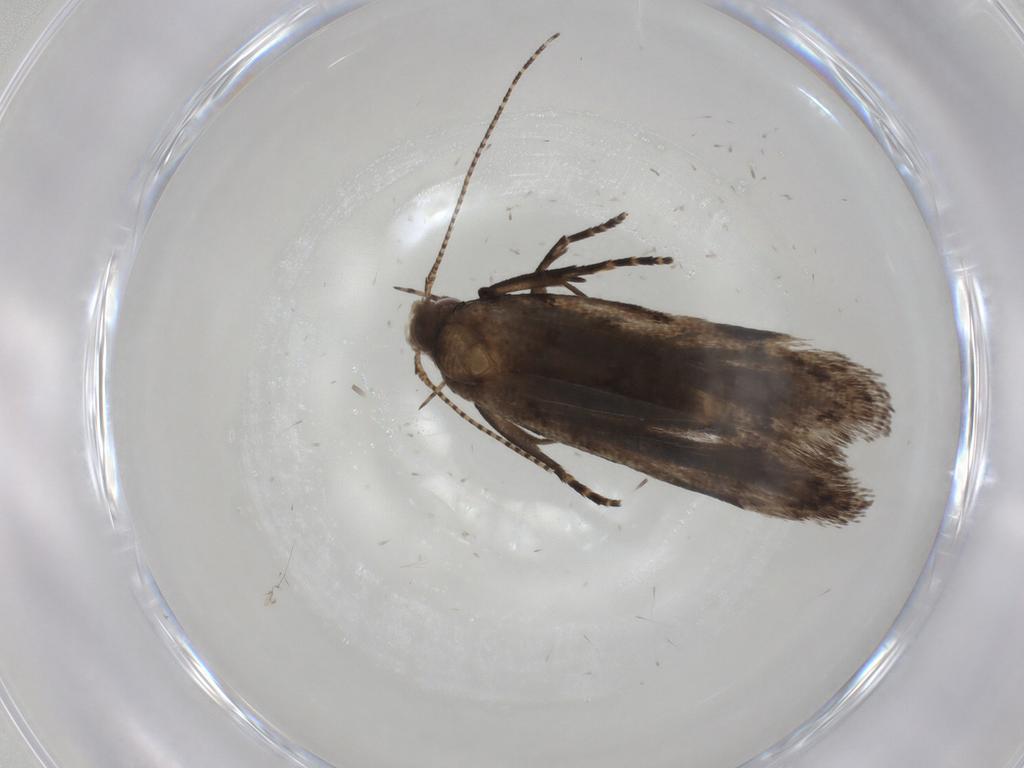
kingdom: Animalia
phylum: Arthropoda
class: Insecta
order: Lepidoptera
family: Gelechiidae
